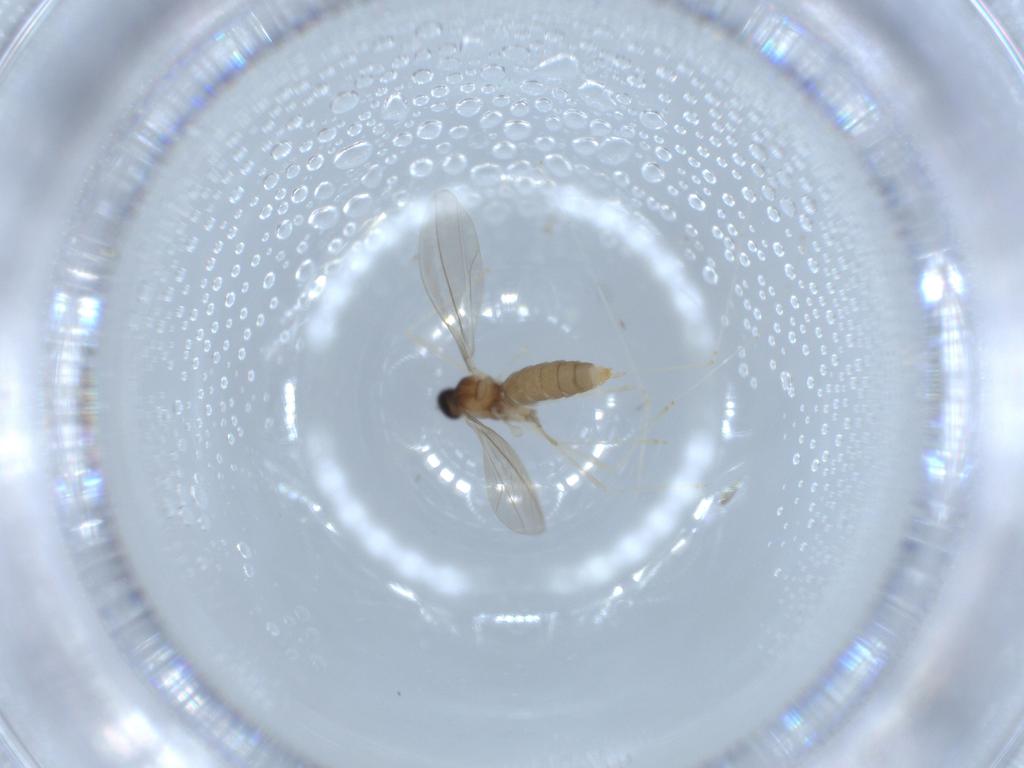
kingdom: Animalia
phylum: Arthropoda
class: Insecta
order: Diptera
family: Cecidomyiidae
